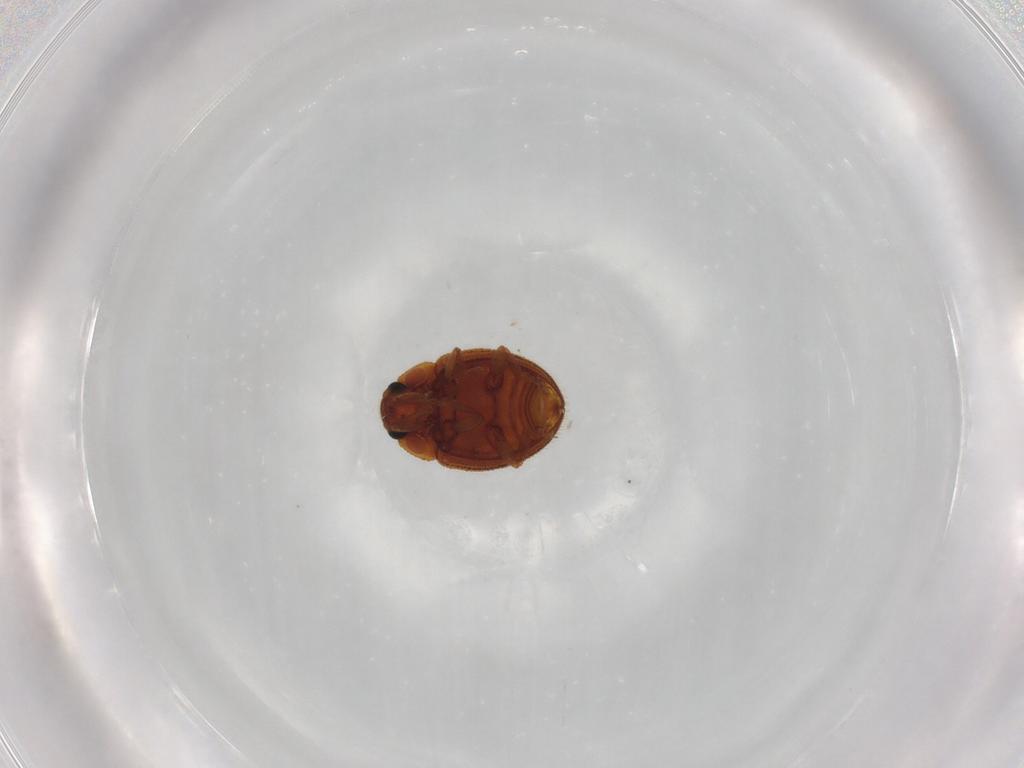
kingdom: Animalia
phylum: Arthropoda
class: Insecta
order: Coleoptera
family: Euxestidae
